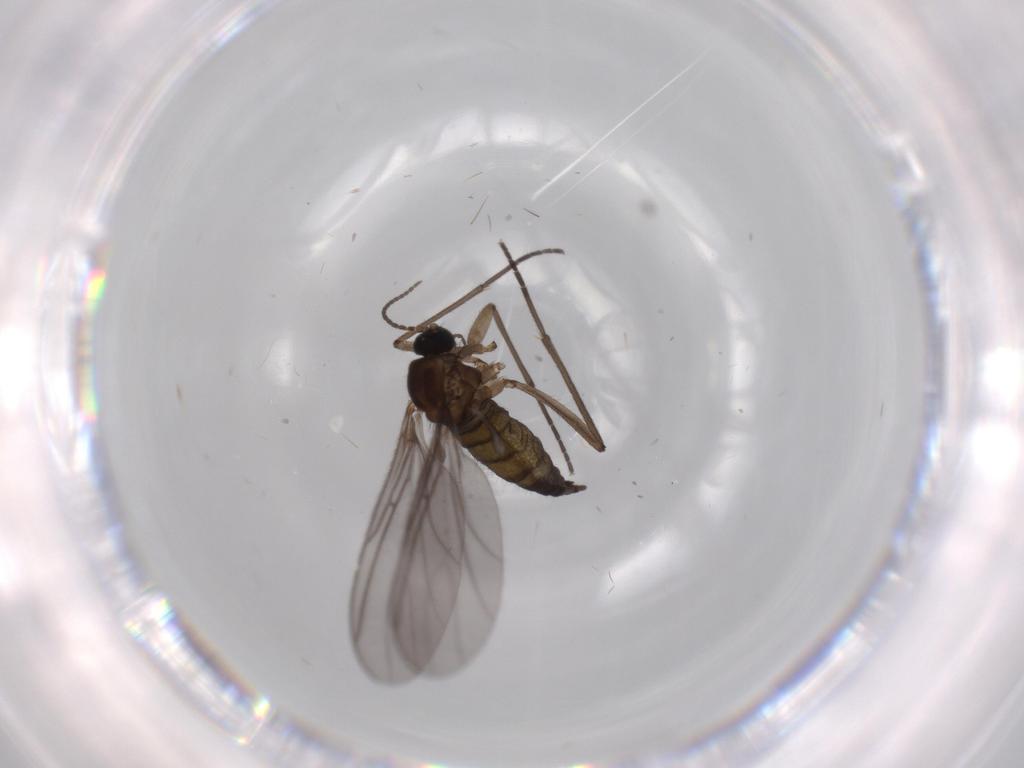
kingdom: Animalia
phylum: Arthropoda
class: Insecta
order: Diptera
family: Sciaridae
